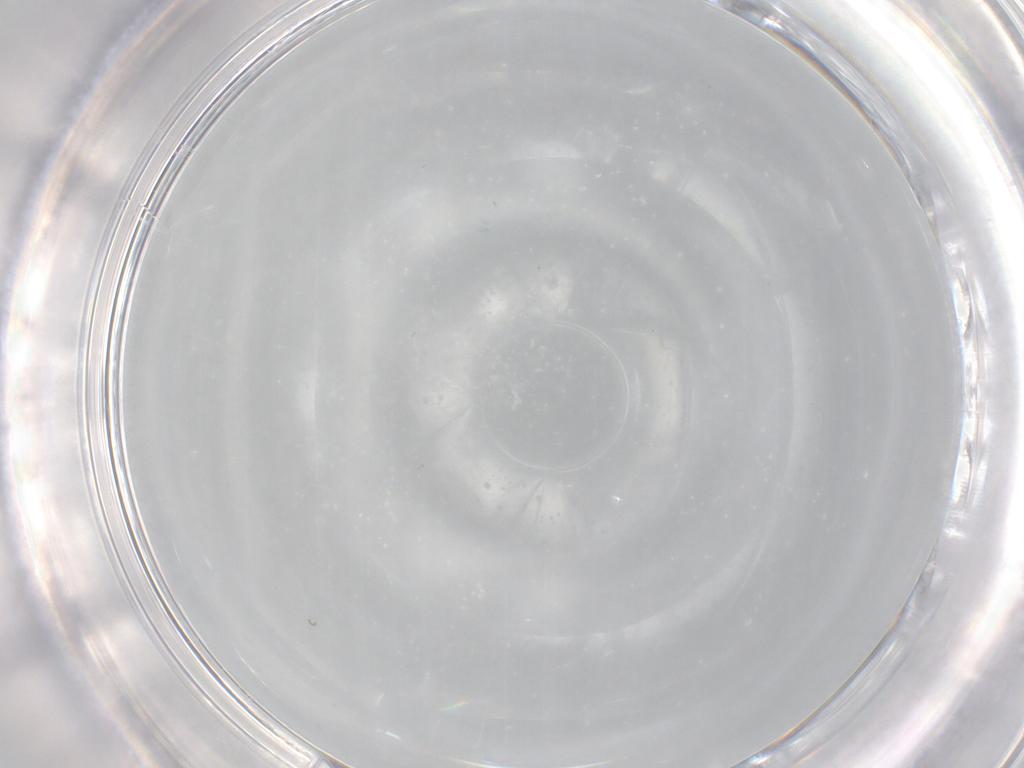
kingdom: Animalia
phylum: Arthropoda
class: Insecta
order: Diptera
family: Cecidomyiidae
